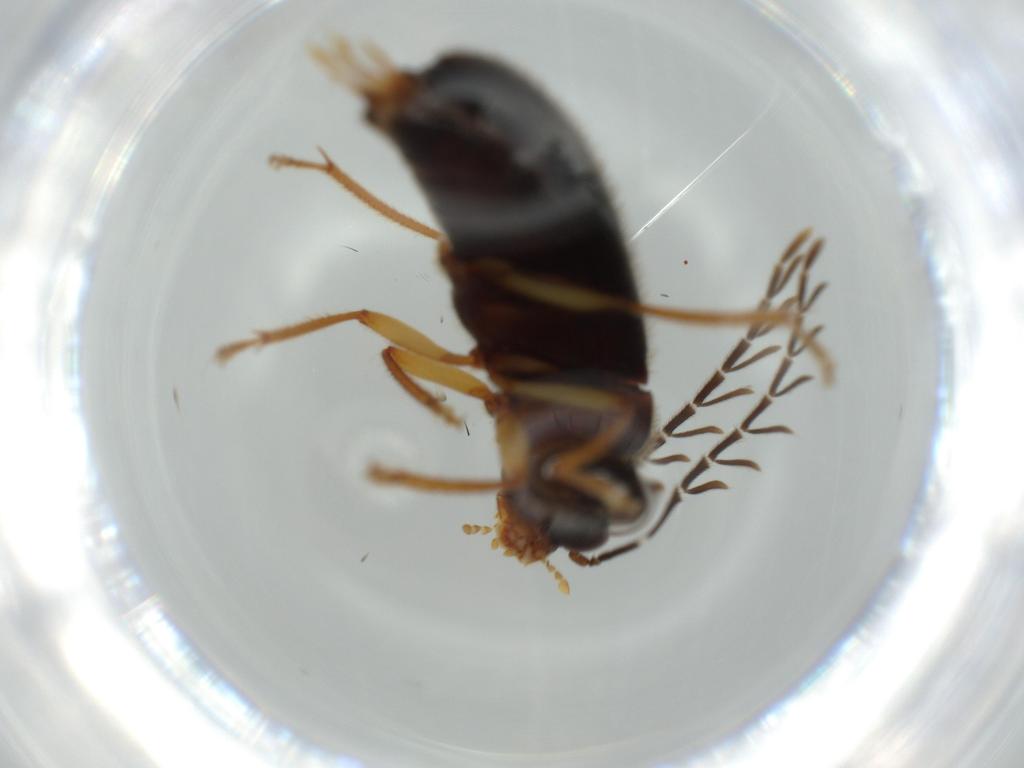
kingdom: Animalia
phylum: Arthropoda
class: Insecta
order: Coleoptera
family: Ptilodactylidae
